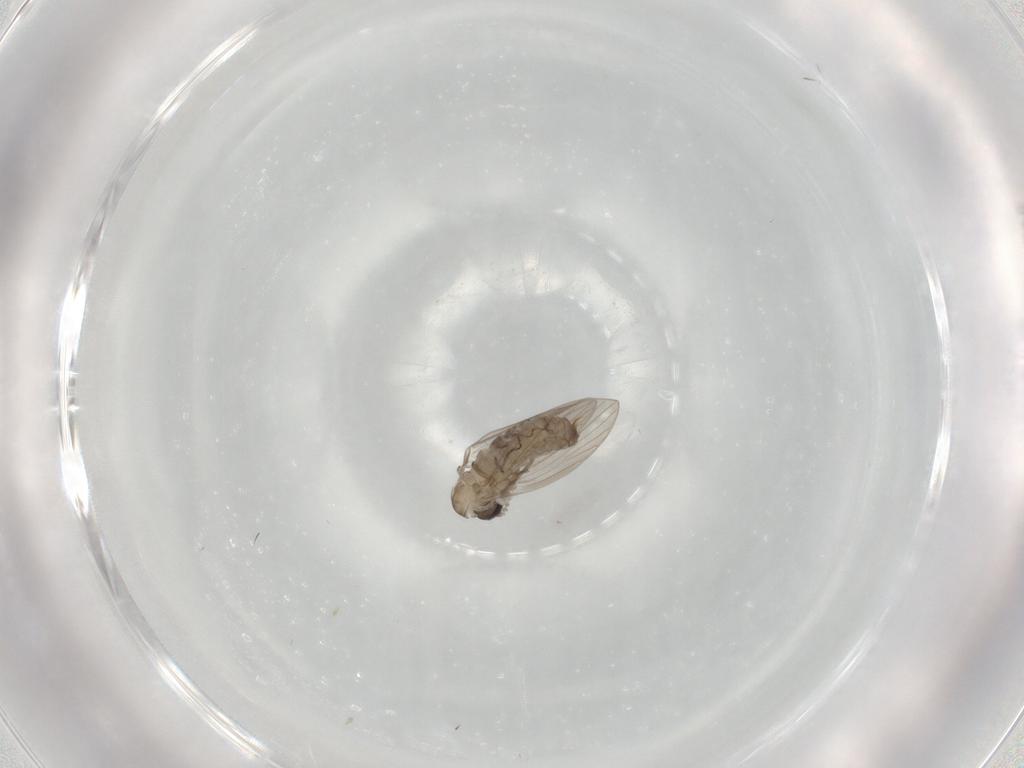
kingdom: Animalia
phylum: Arthropoda
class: Insecta
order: Diptera
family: Psychodidae
